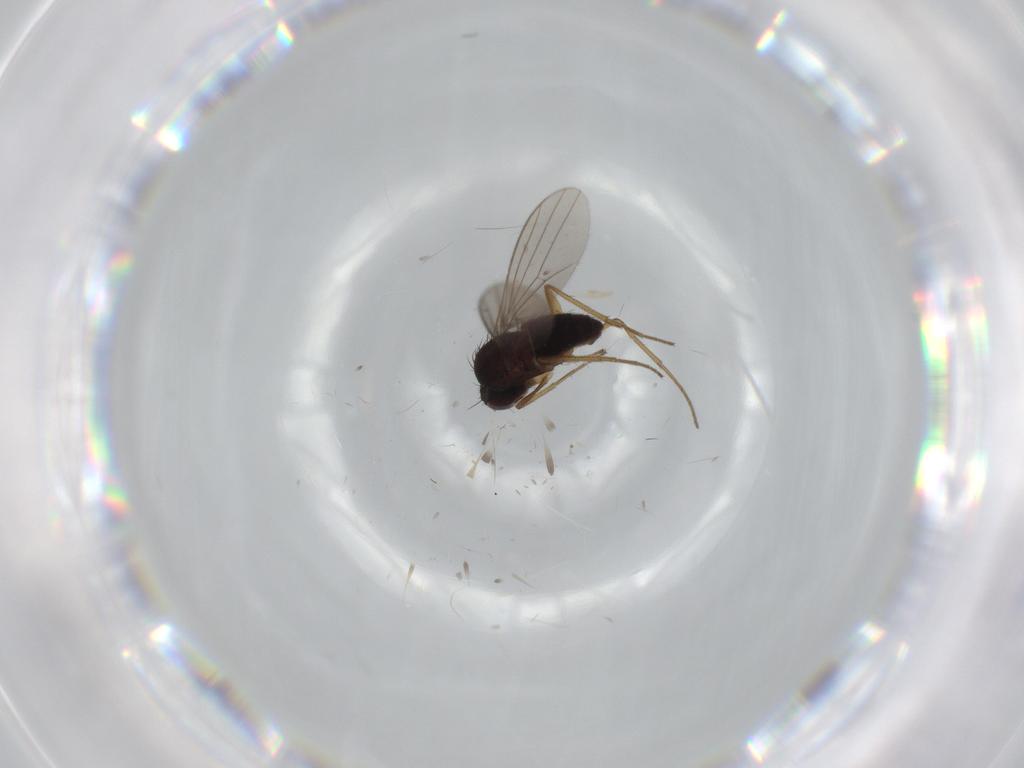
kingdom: Animalia
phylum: Arthropoda
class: Insecta
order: Diptera
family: Dolichopodidae
